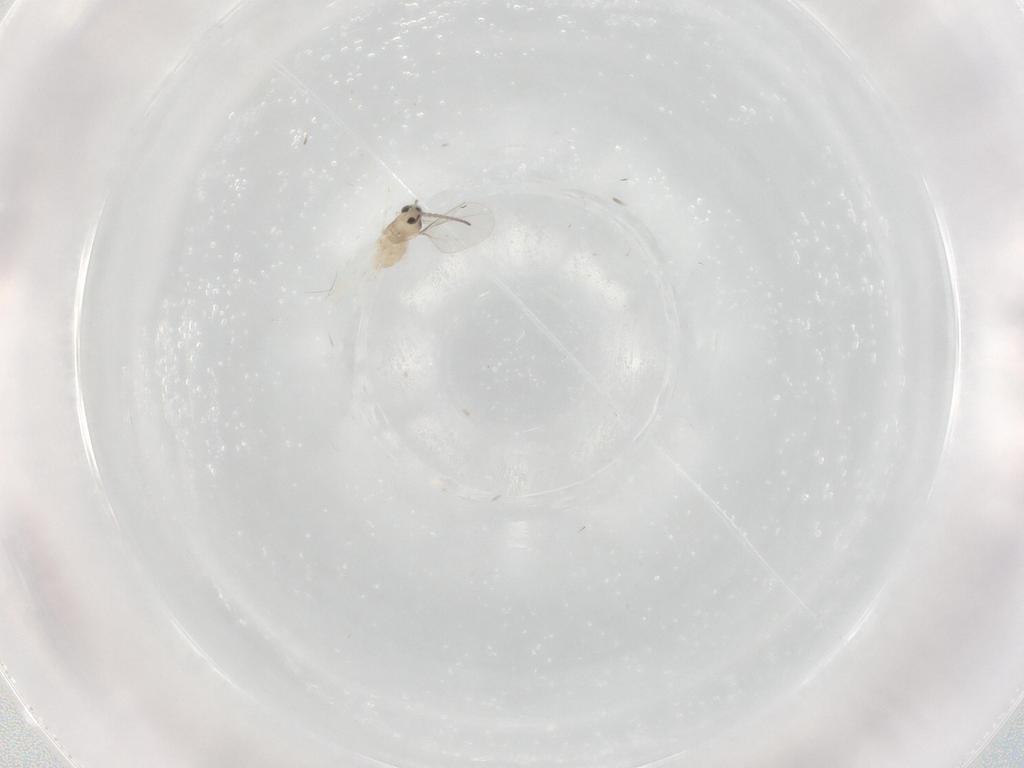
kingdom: Animalia
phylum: Arthropoda
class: Insecta
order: Diptera
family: Cecidomyiidae
